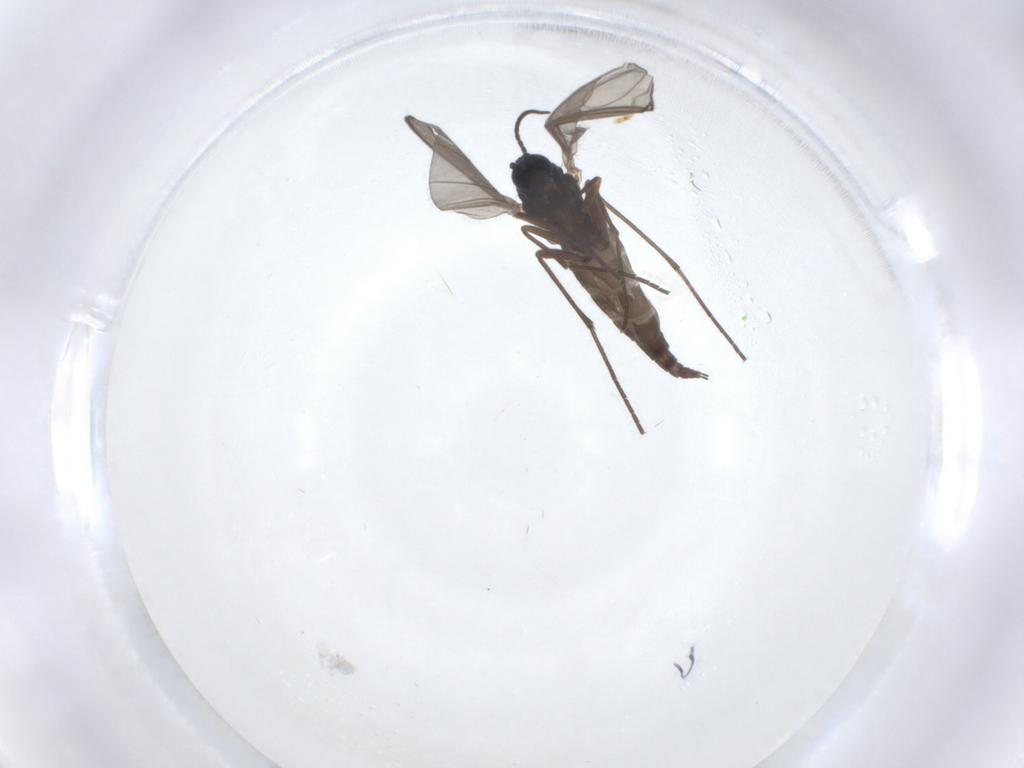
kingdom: Animalia
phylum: Arthropoda
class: Insecta
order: Diptera
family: Sciaridae
